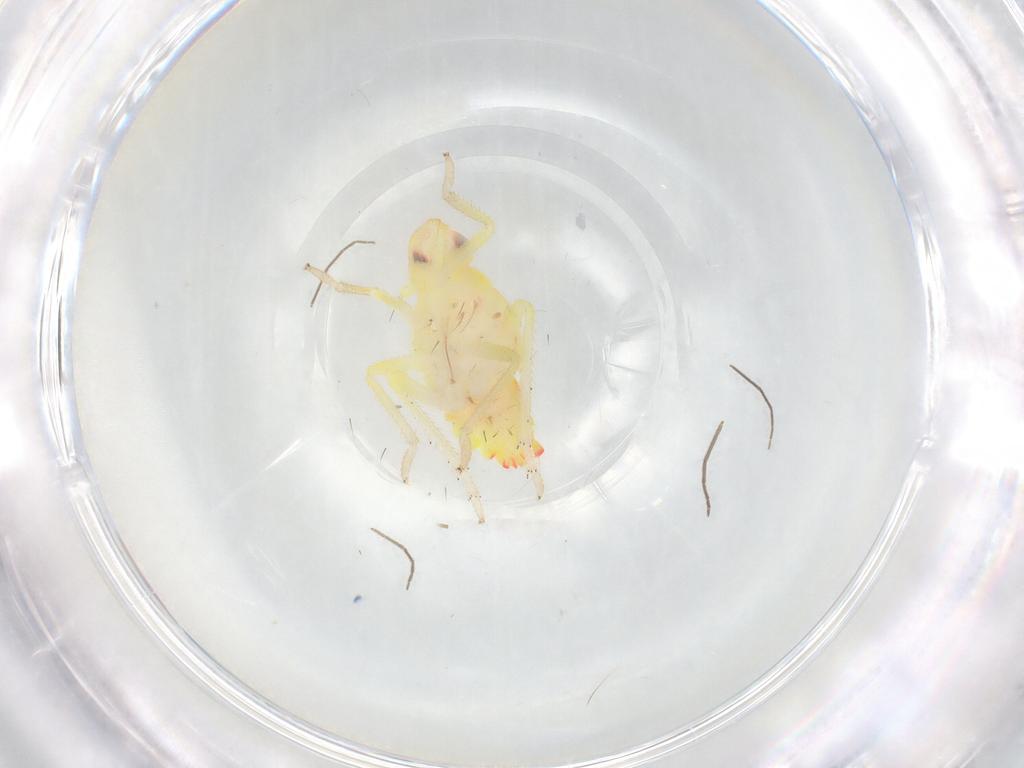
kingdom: Animalia
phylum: Arthropoda
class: Insecta
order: Hemiptera
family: Tropiduchidae
